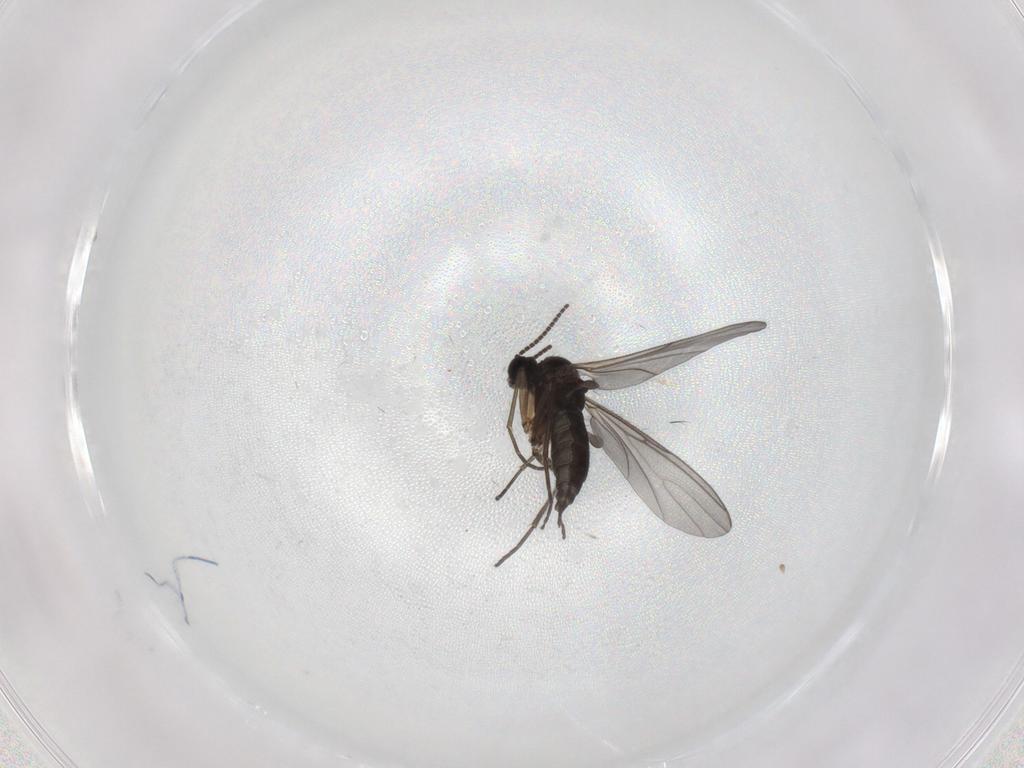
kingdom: Animalia
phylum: Arthropoda
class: Insecta
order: Diptera
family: Sciaridae
